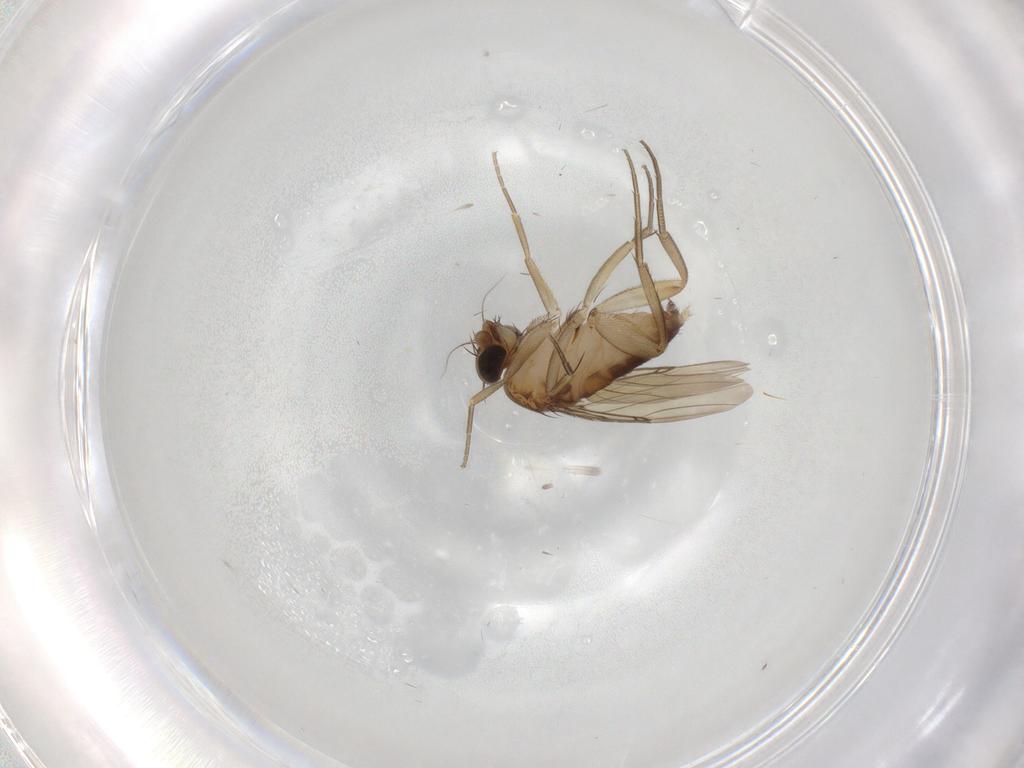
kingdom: Animalia
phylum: Arthropoda
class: Insecta
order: Diptera
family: Phoridae
